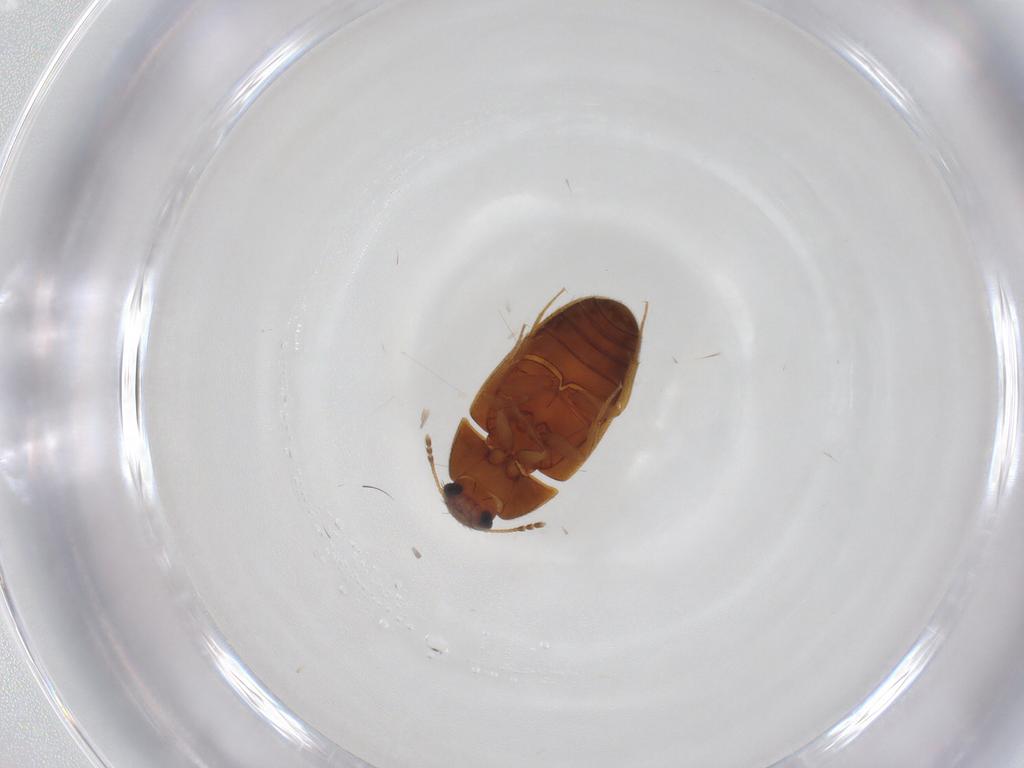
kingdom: Animalia
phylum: Arthropoda
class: Insecta
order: Coleoptera
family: Mycetophagidae
